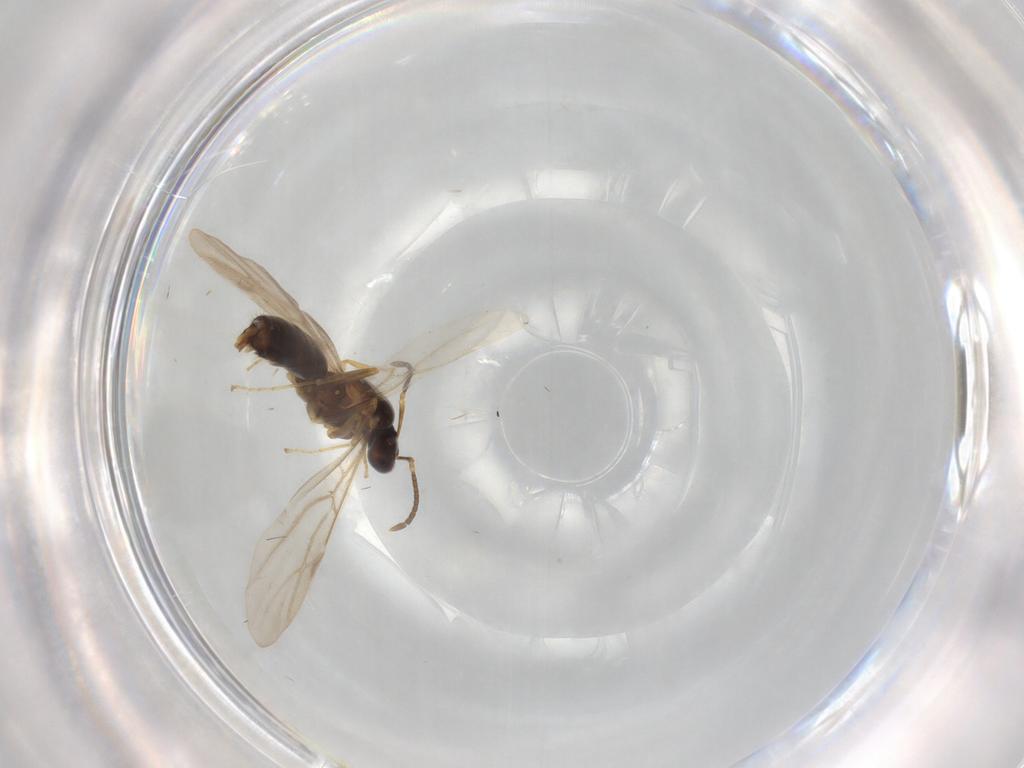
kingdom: Animalia
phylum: Arthropoda
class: Insecta
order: Hymenoptera
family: Formicidae
